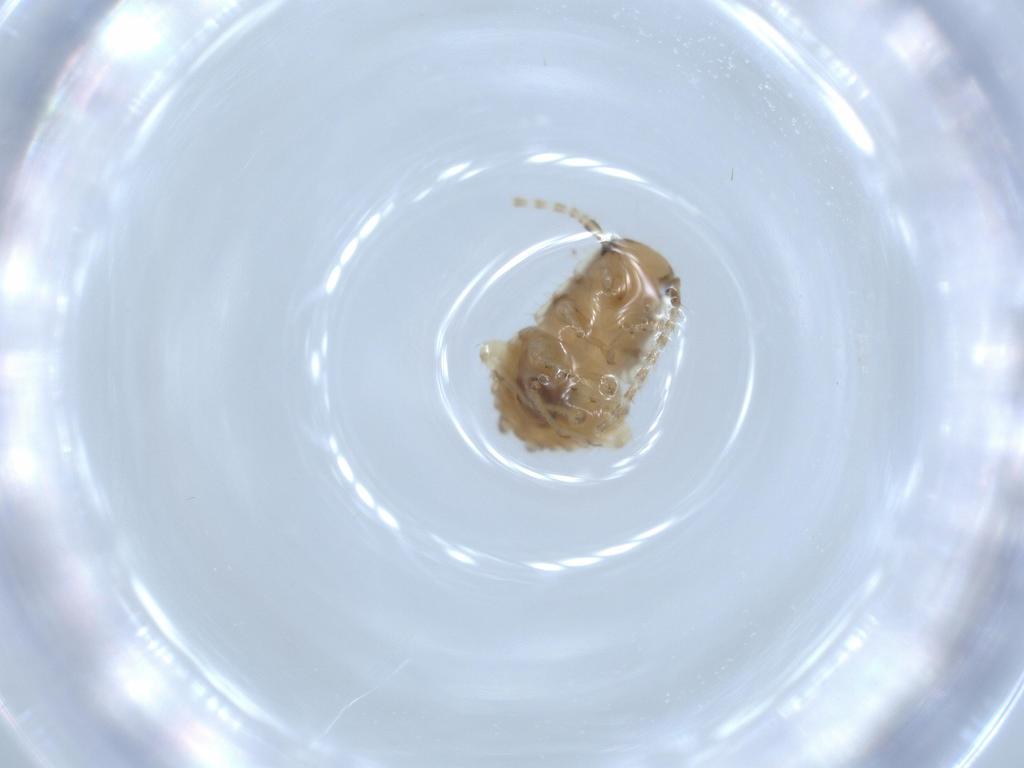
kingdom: Animalia
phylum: Arthropoda
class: Insecta
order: Blattodea
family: Ectobiidae
